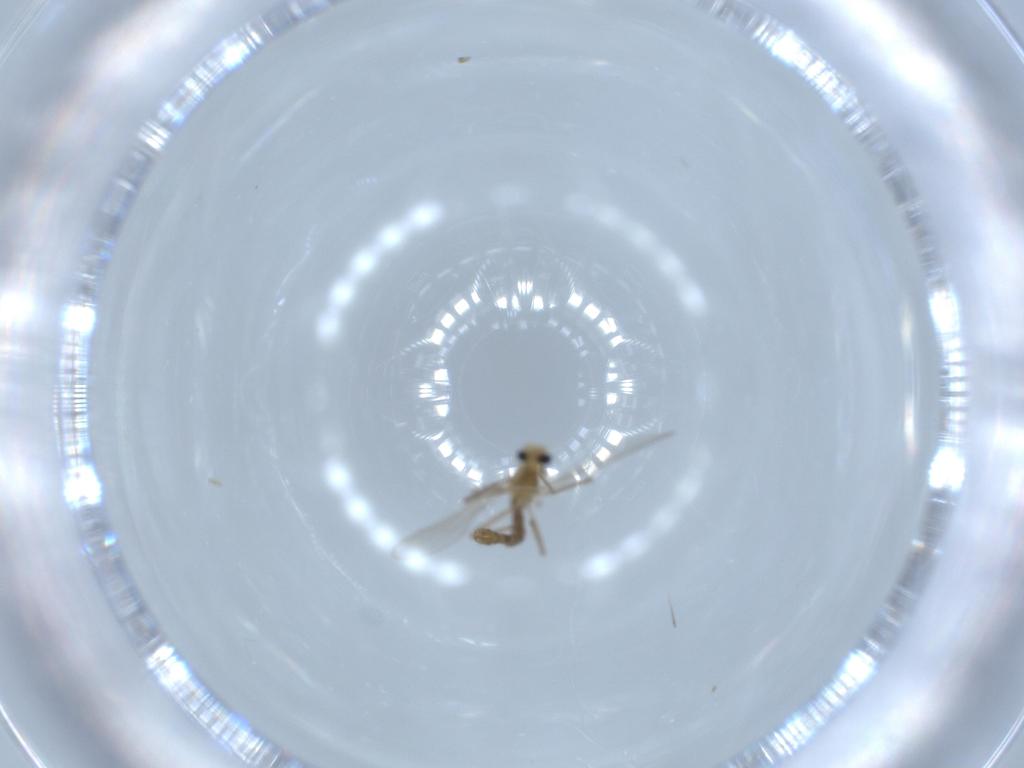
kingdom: Animalia
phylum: Arthropoda
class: Insecta
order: Diptera
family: Chironomidae
